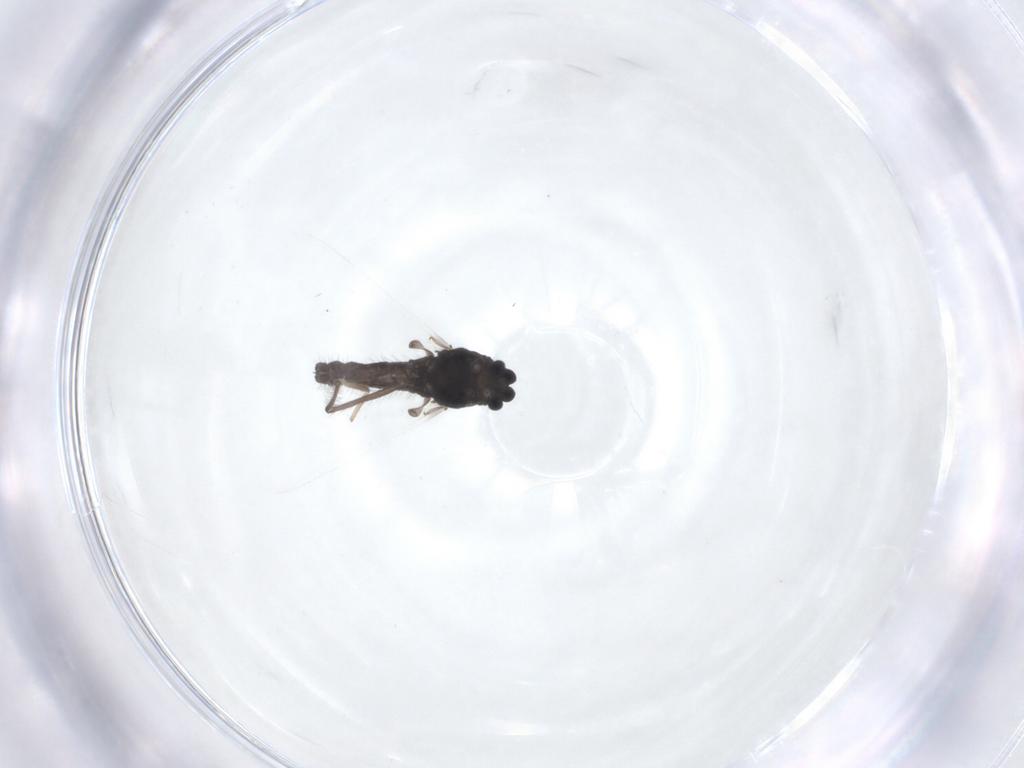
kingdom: Animalia
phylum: Arthropoda
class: Insecta
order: Diptera
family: Chironomidae
